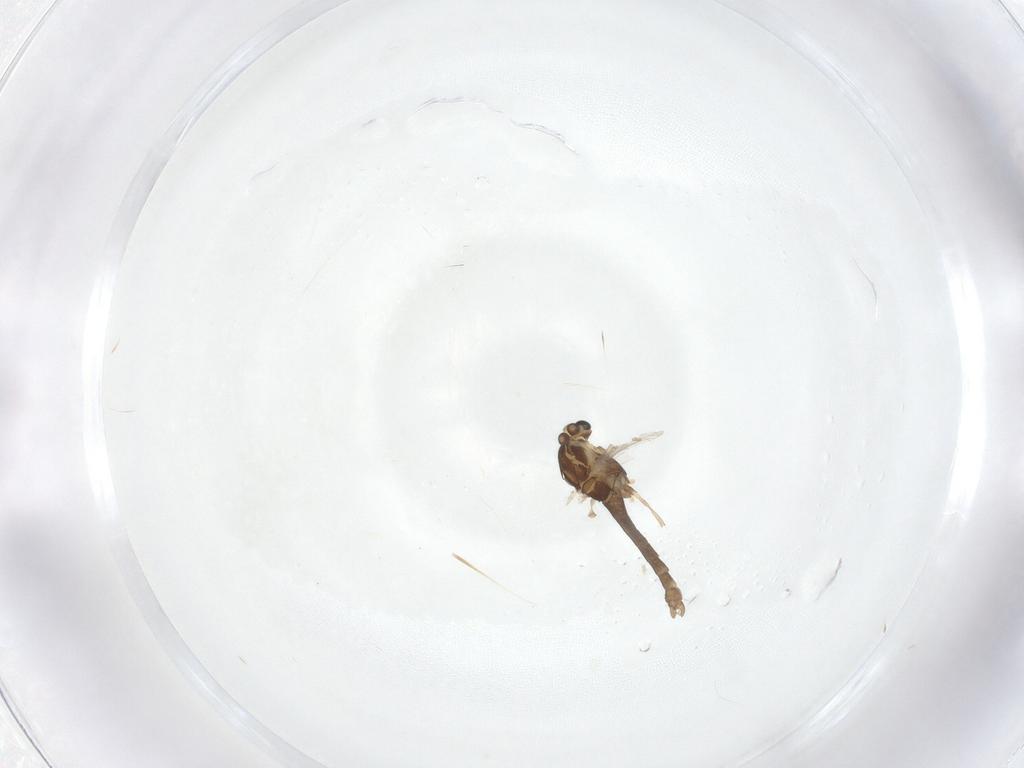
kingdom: Animalia
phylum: Arthropoda
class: Insecta
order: Diptera
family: Chironomidae
